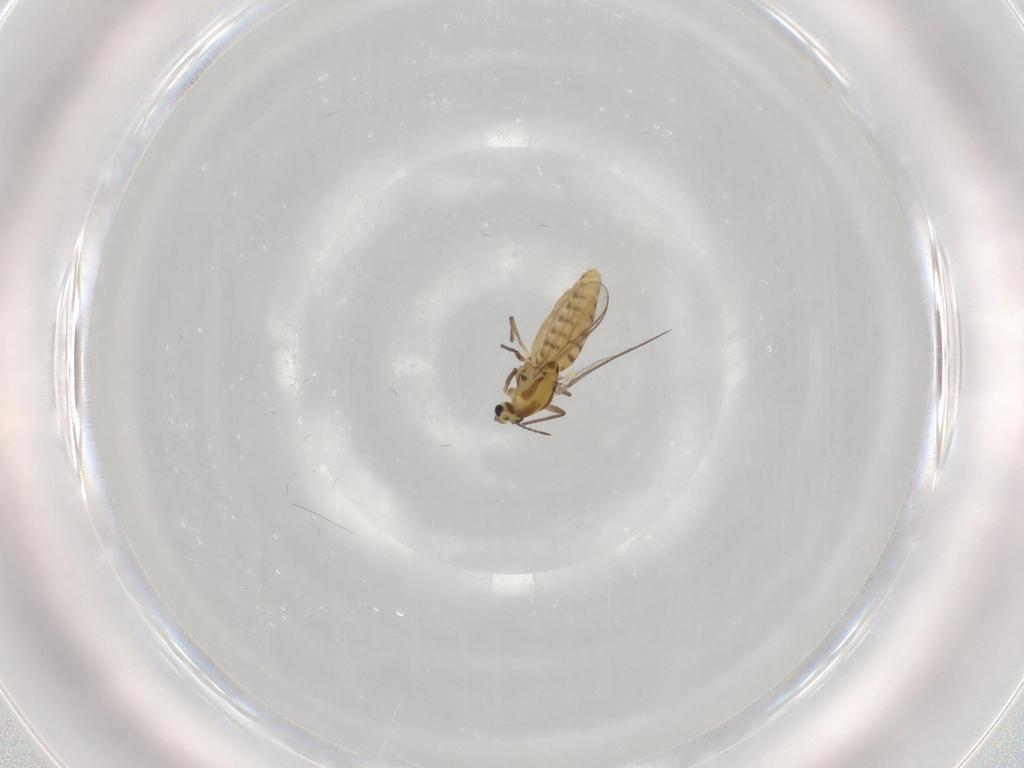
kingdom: Animalia
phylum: Arthropoda
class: Insecta
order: Diptera
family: Chironomidae
